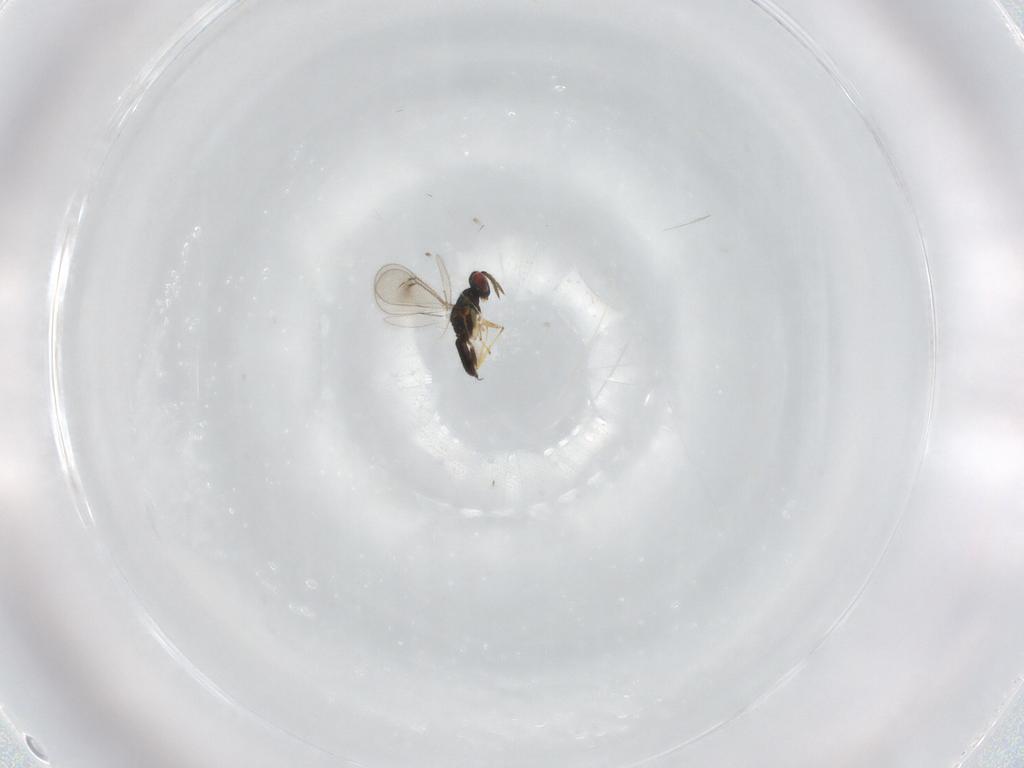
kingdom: Animalia
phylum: Arthropoda
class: Insecta
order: Hymenoptera
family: Eulophidae
